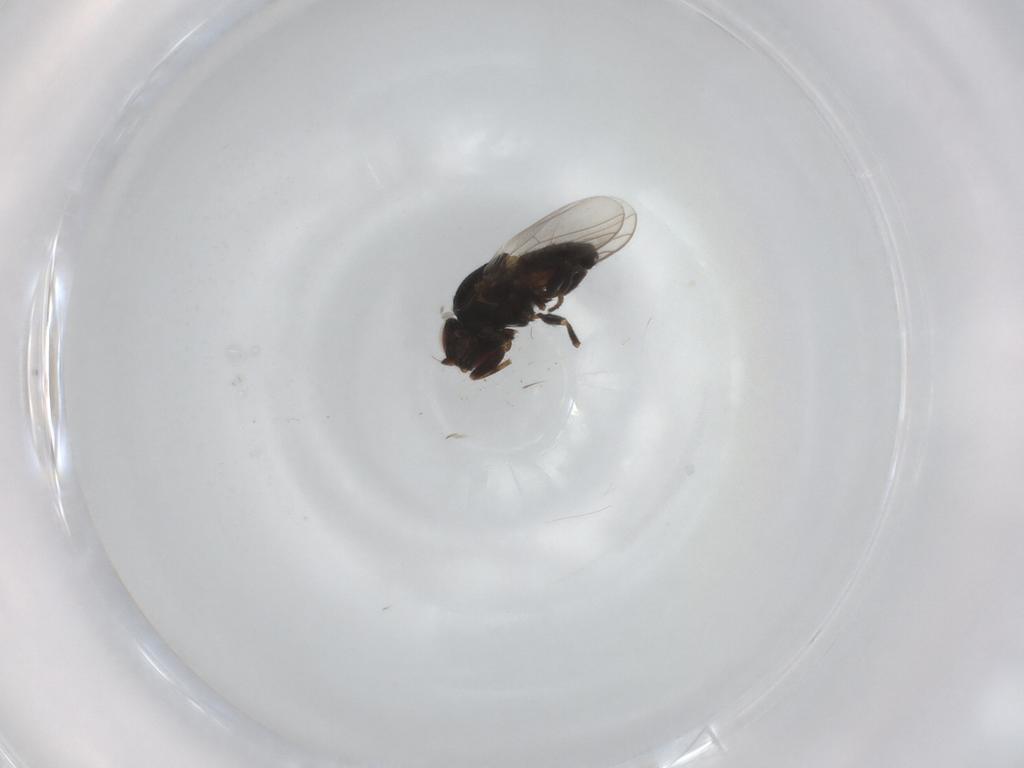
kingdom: Animalia
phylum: Arthropoda
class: Insecta
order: Diptera
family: Chloropidae
